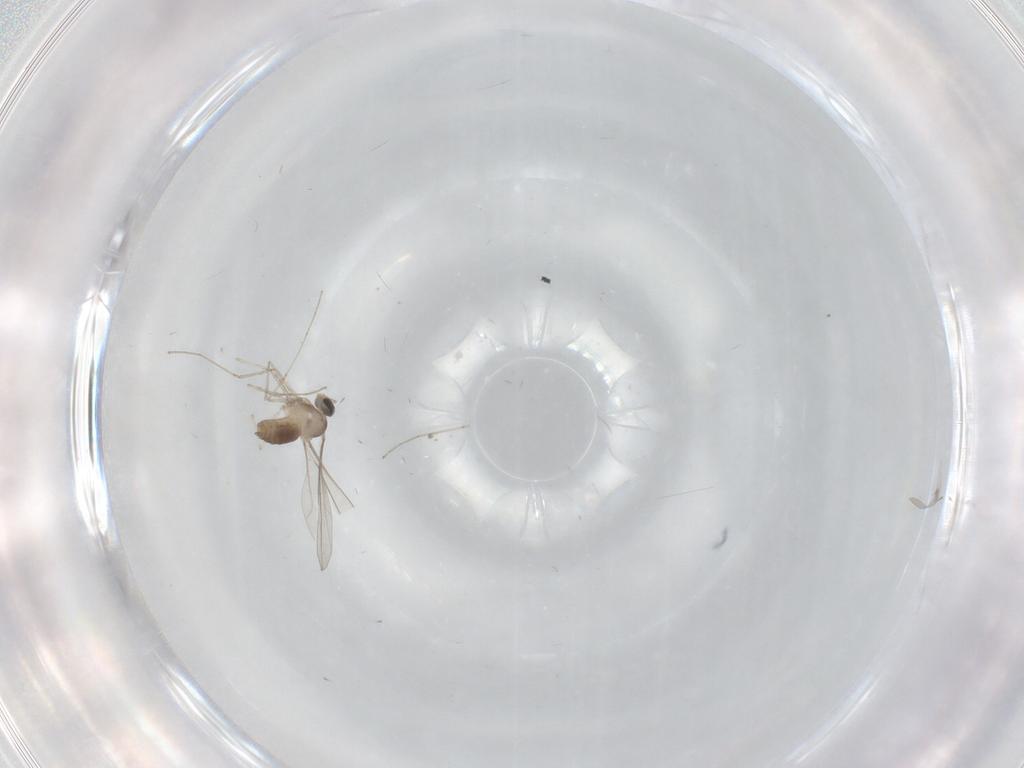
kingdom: Animalia
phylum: Arthropoda
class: Insecta
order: Diptera
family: Cecidomyiidae
